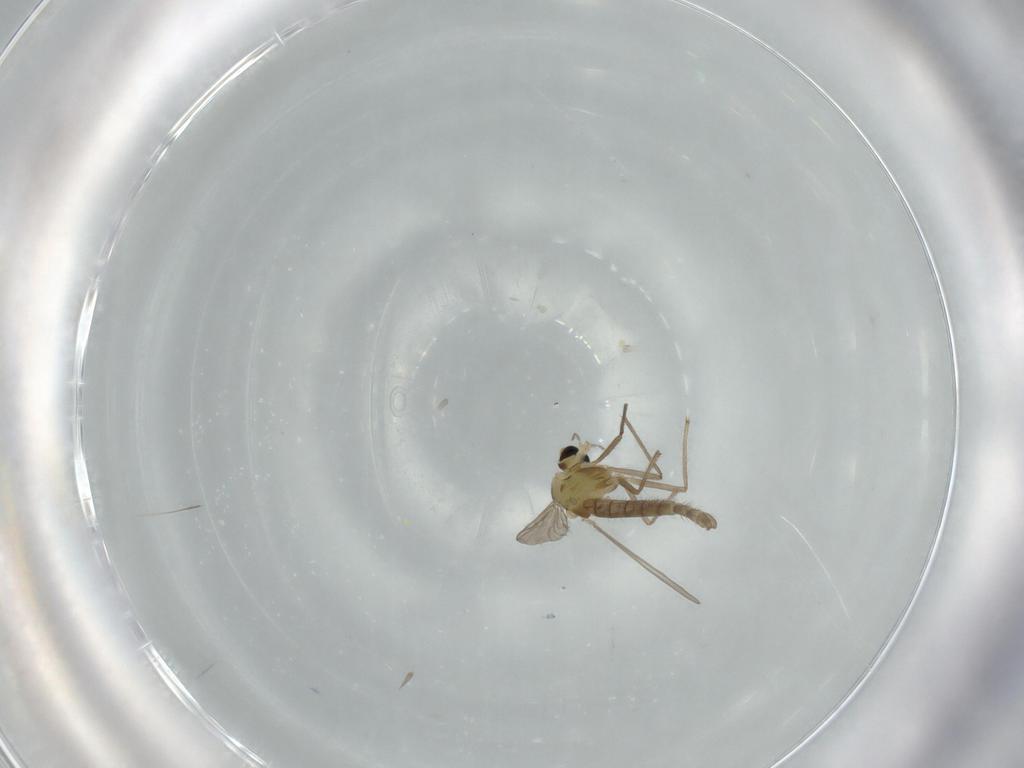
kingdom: Animalia
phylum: Arthropoda
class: Insecta
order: Diptera
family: Chironomidae
